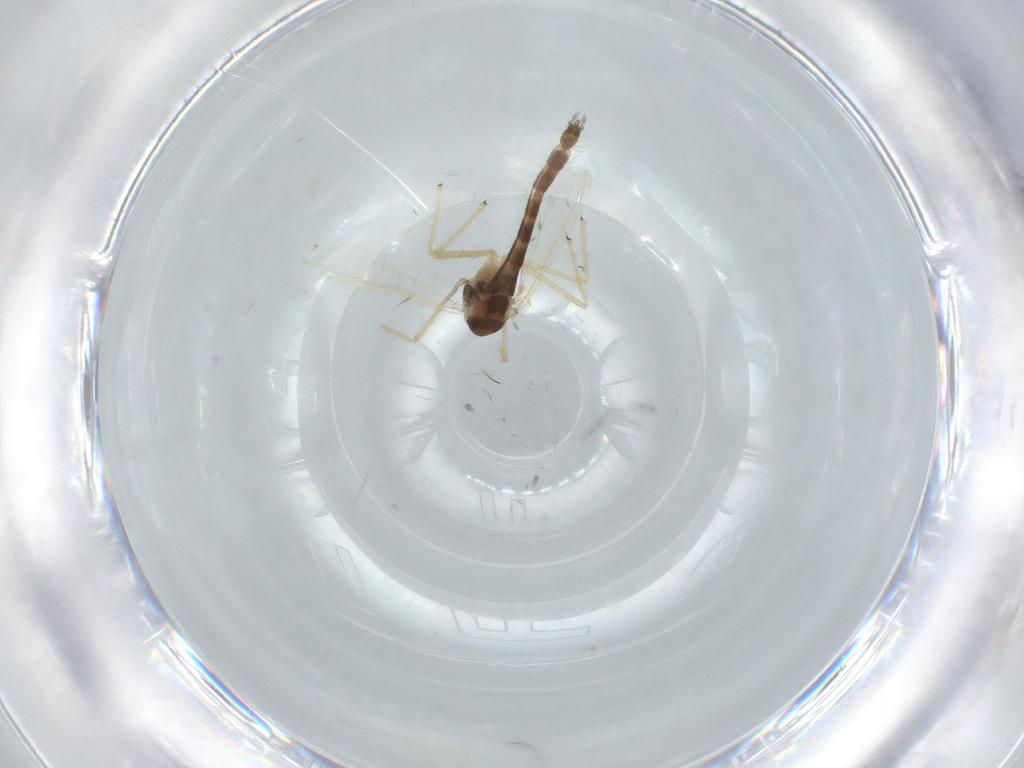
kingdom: Animalia
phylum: Arthropoda
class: Insecta
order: Diptera
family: Chironomidae
